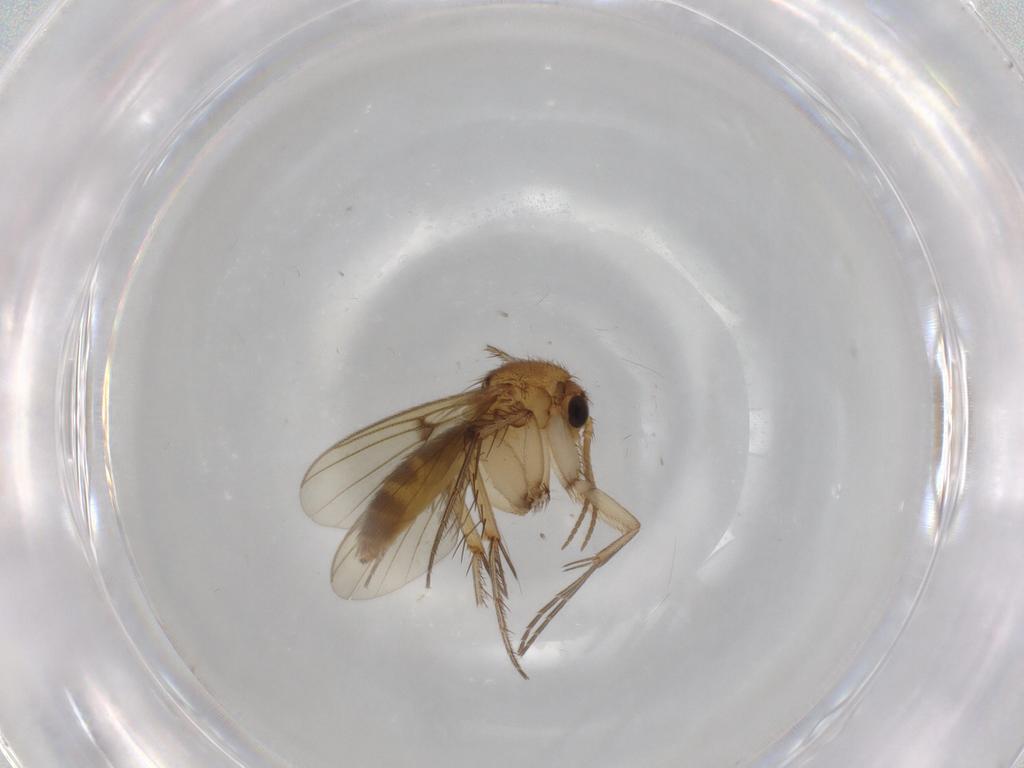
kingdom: Animalia
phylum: Arthropoda
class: Insecta
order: Diptera
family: Mycetophilidae
